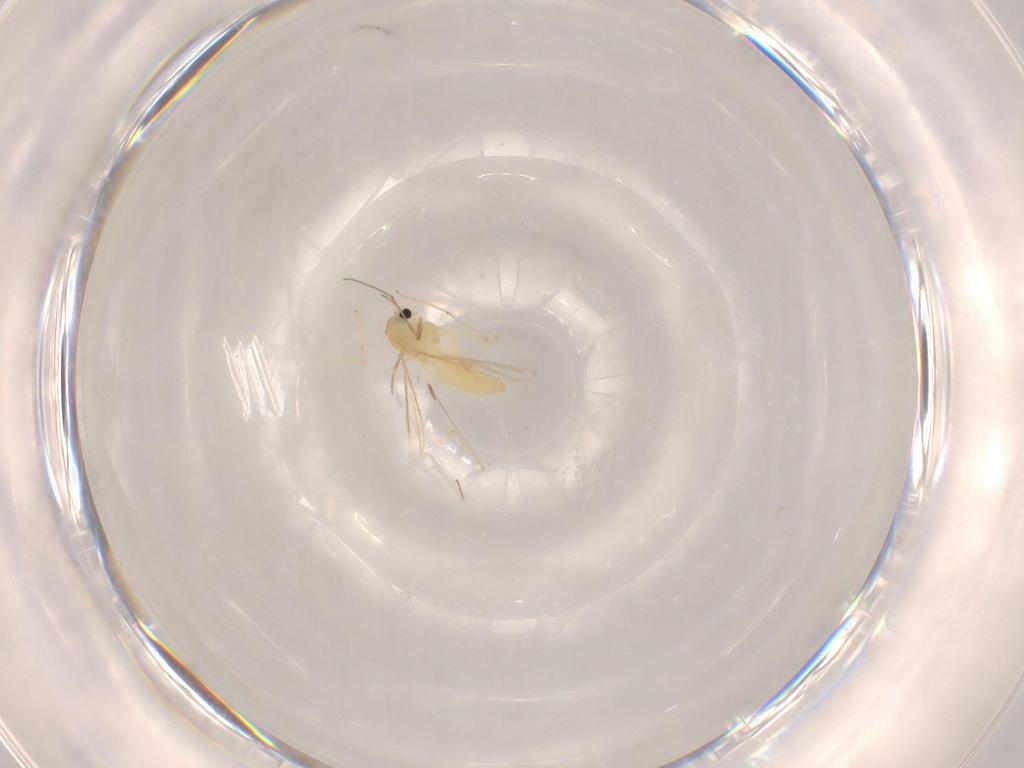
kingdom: Animalia
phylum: Arthropoda
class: Insecta
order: Diptera
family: Chironomidae
